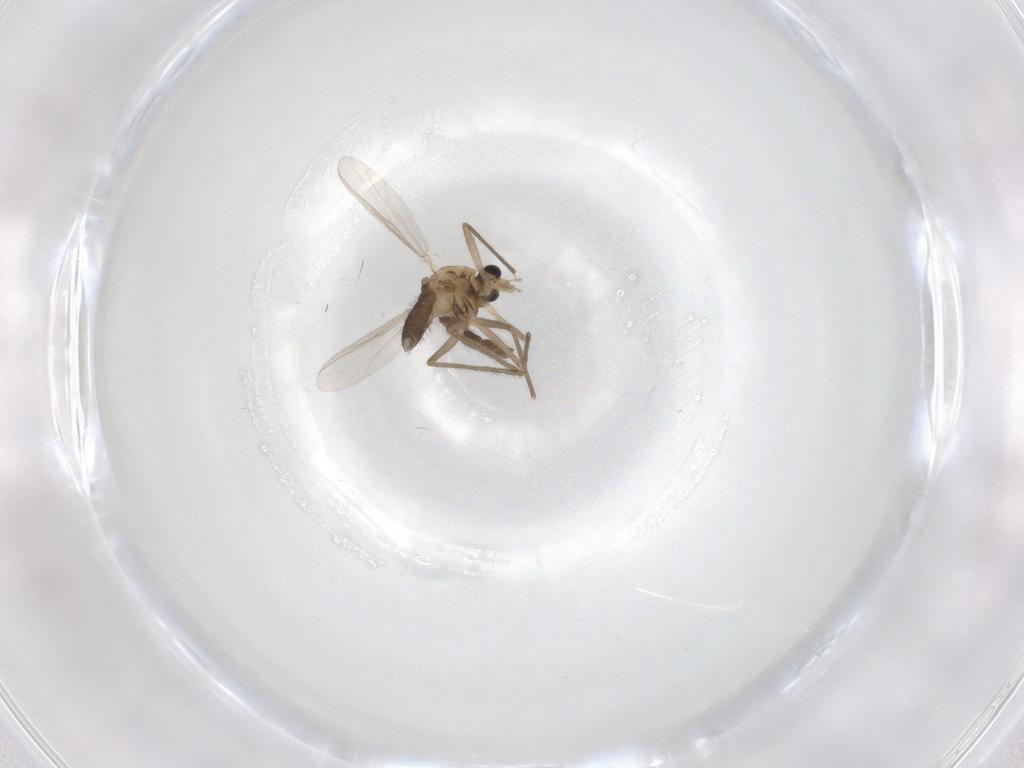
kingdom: Animalia
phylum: Arthropoda
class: Insecta
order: Diptera
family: Chironomidae
